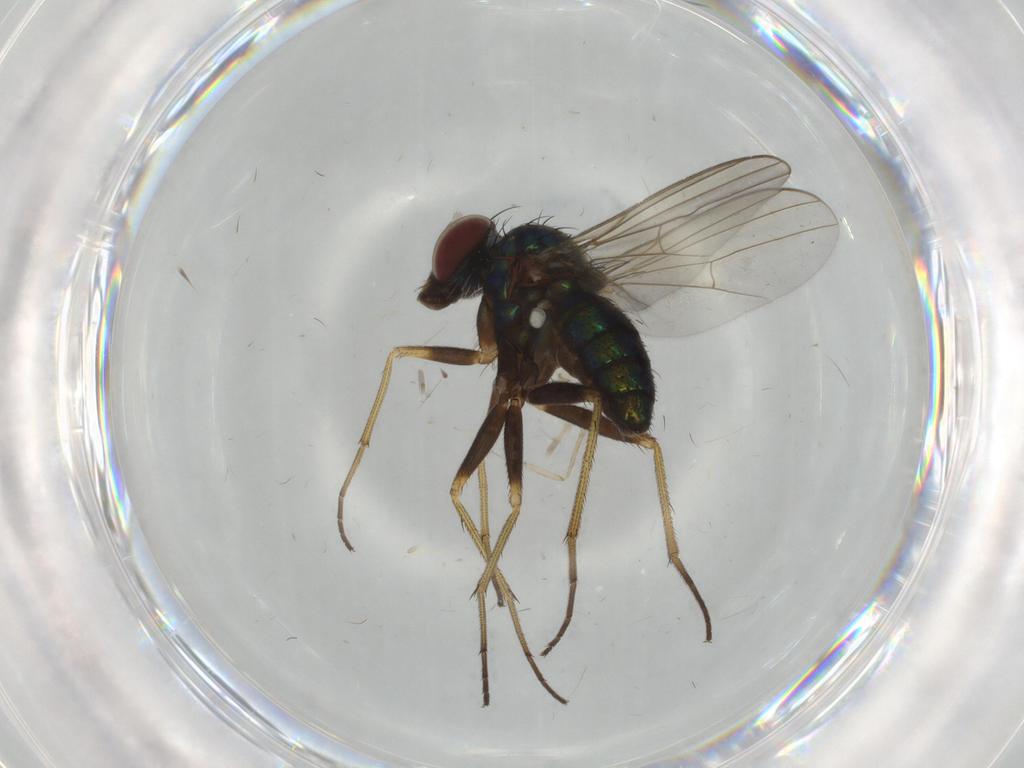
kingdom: Animalia
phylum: Arthropoda
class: Insecta
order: Diptera
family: Dolichopodidae
